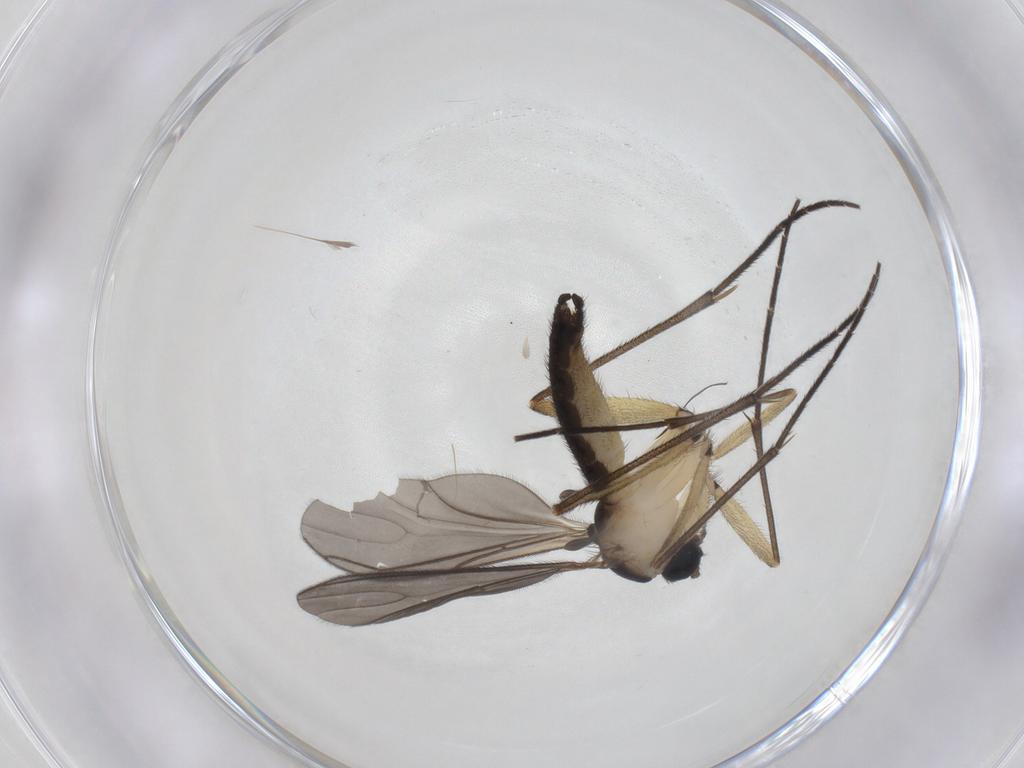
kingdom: Animalia
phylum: Arthropoda
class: Insecta
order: Diptera
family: Sciaridae
